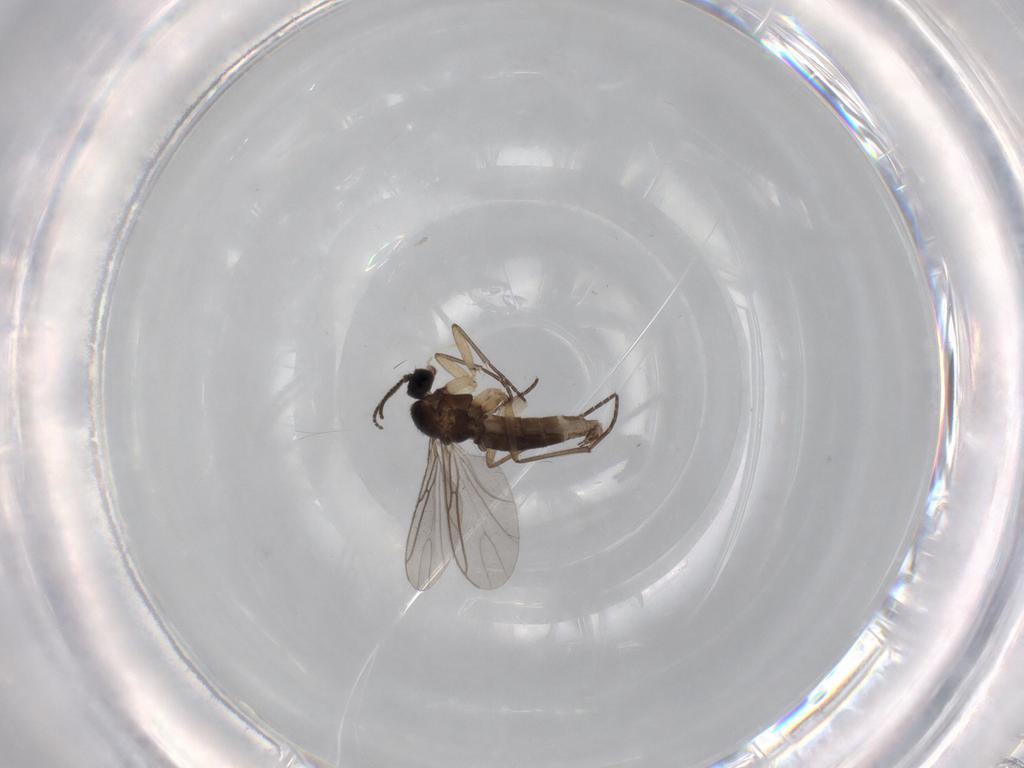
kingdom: Animalia
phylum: Arthropoda
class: Insecta
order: Diptera
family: Sciaridae
